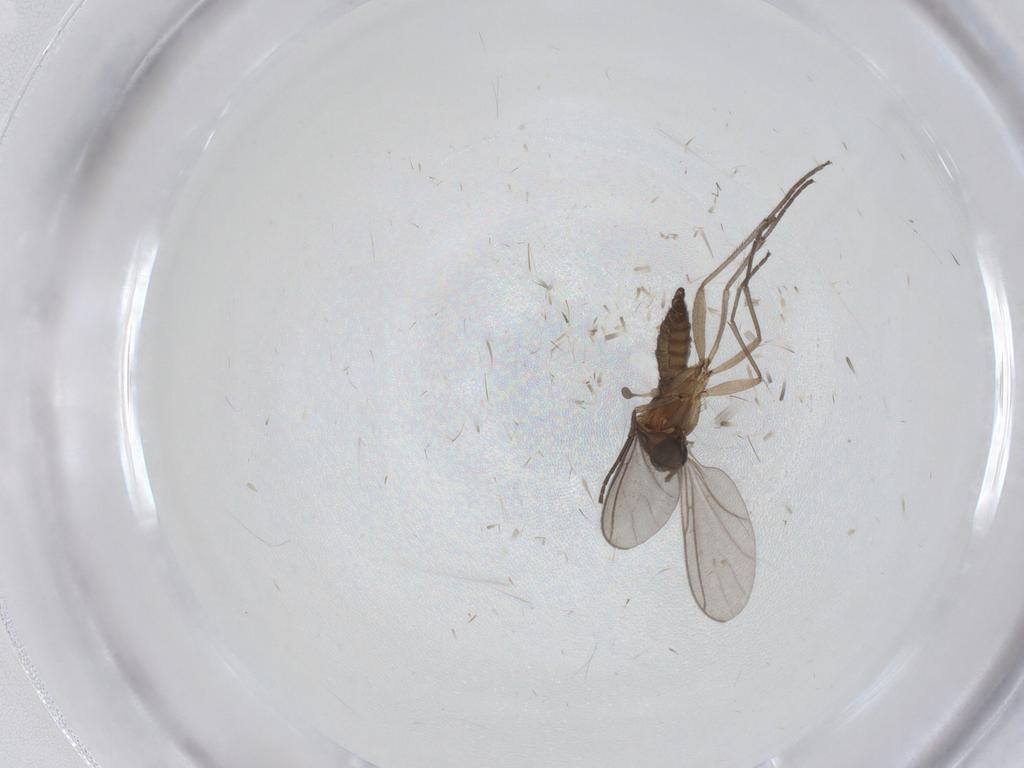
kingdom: Animalia
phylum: Arthropoda
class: Insecta
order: Diptera
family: Sciaridae
